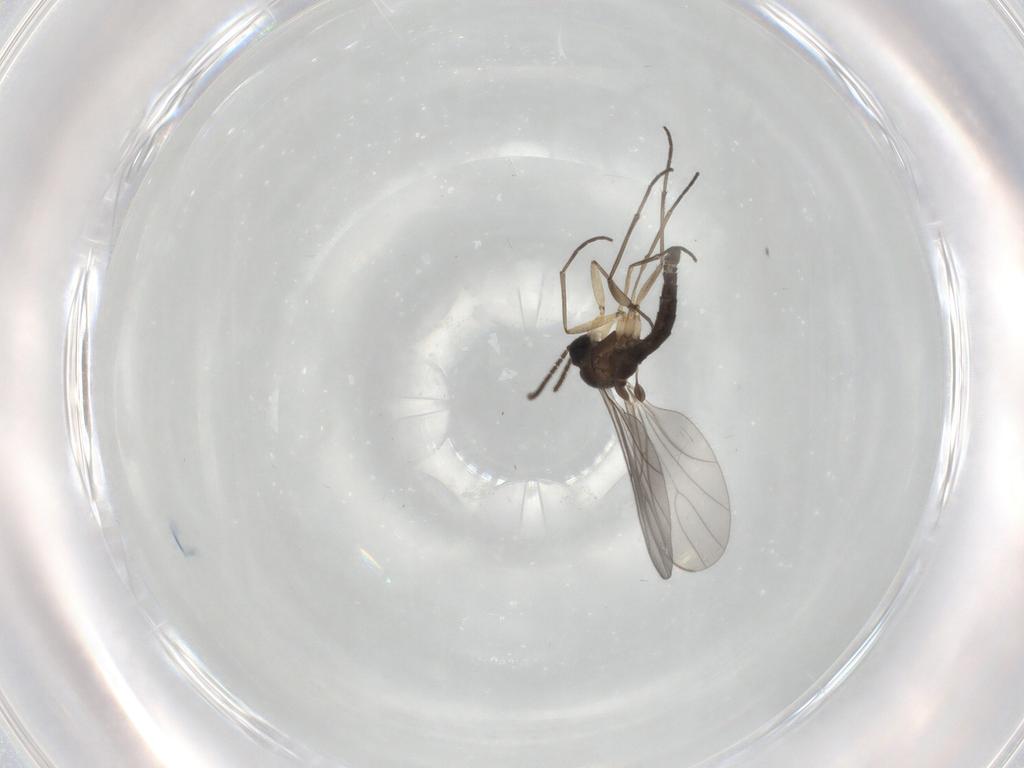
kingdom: Animalia
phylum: Arthropoda
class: Insecta
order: Diptera
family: Sciaridae
